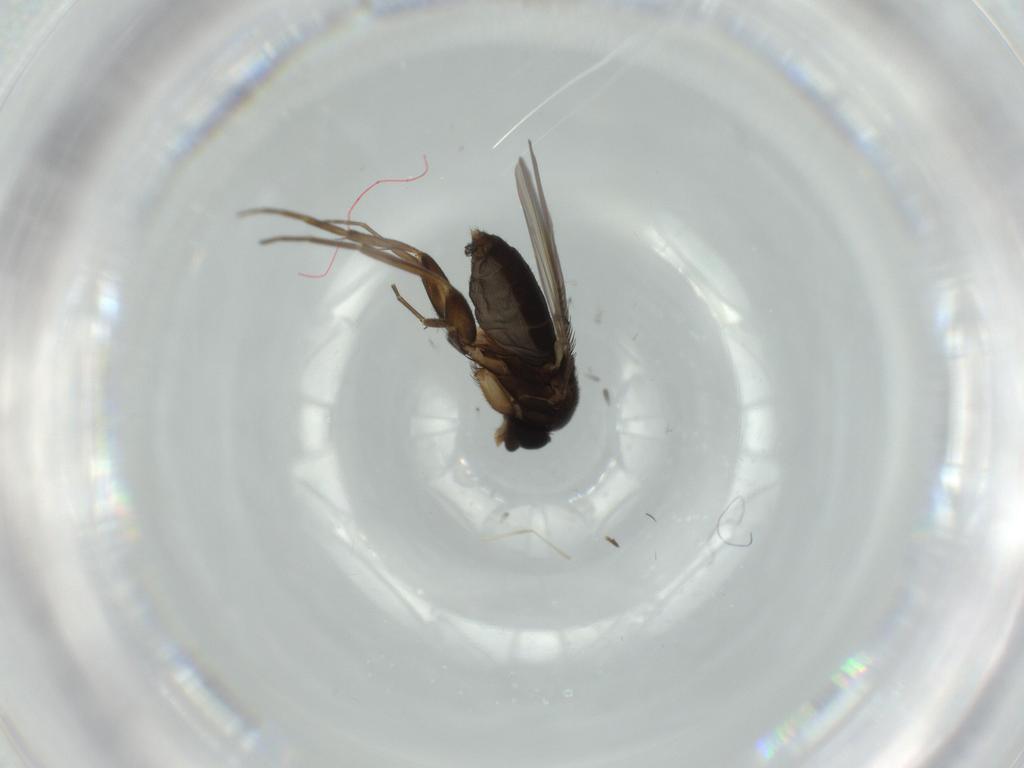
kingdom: Animalia
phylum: Arthropoda
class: Insecta
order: Diptera
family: Phoridae
